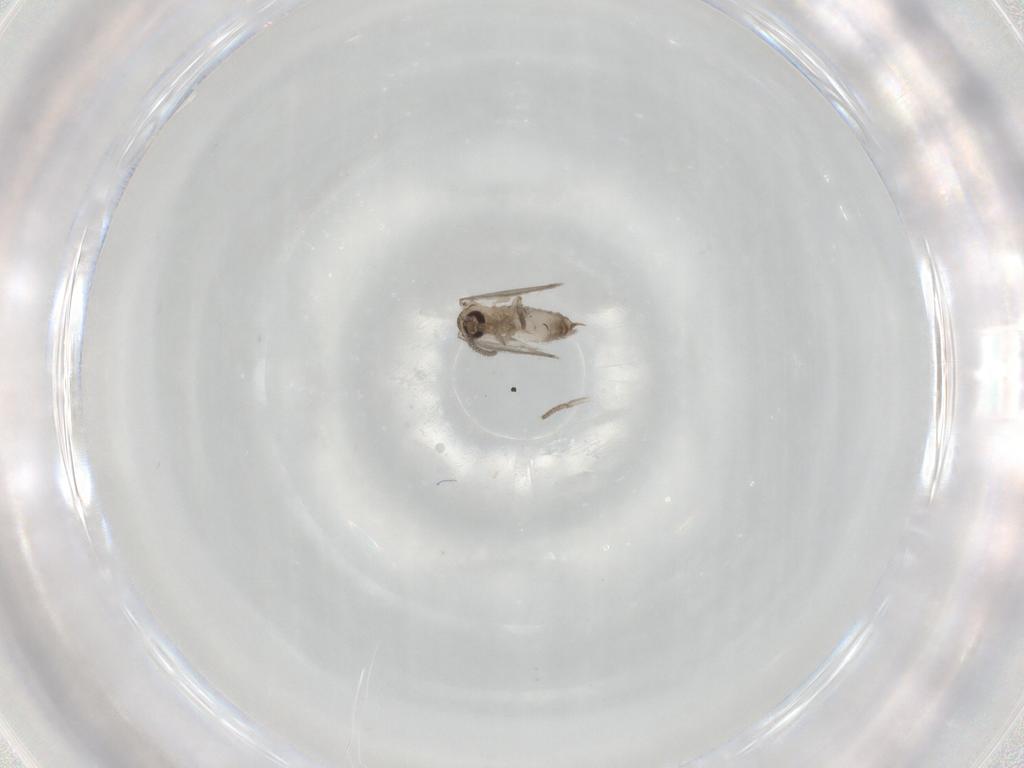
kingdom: Animalia
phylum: Arthropoda
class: Insecta
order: Diptera
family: Psychodidae
